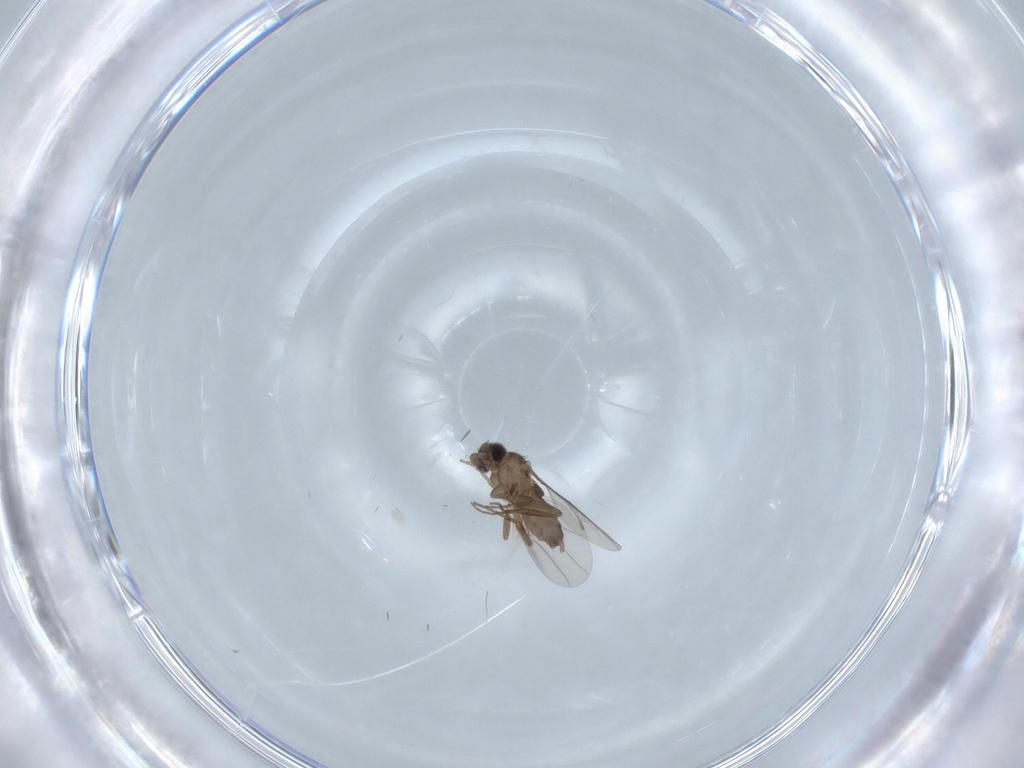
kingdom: Animalia
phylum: Arthropoda
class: Insecta
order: Diptera
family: Phoridae
